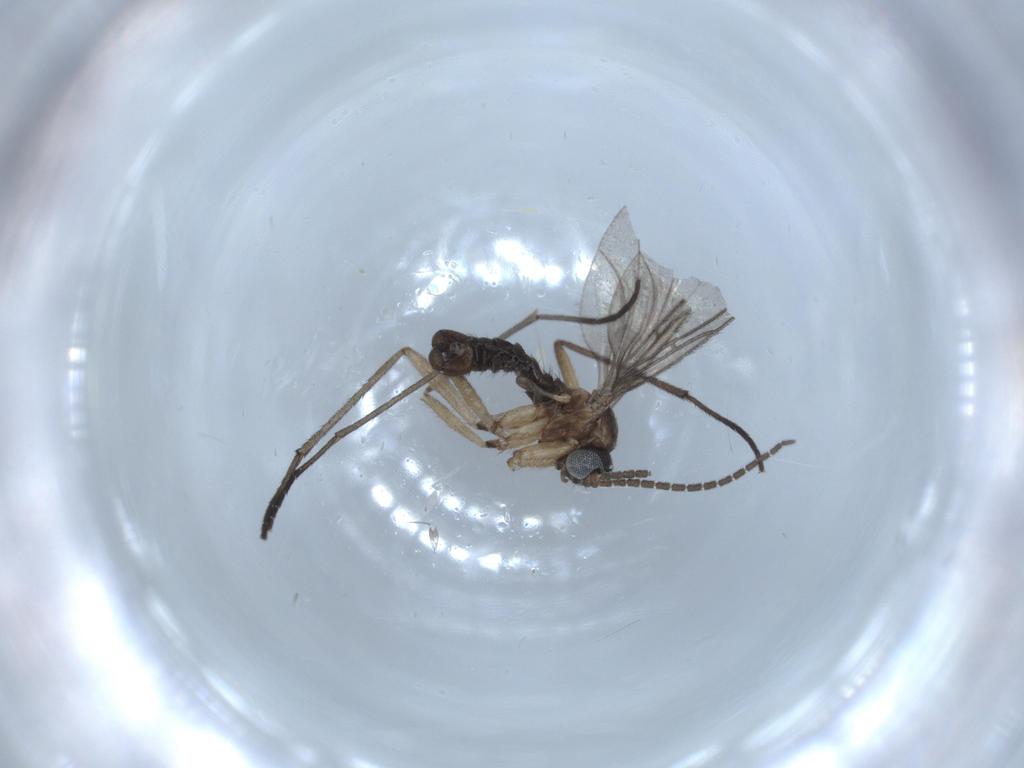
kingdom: Animalia
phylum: Arthropoda
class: Insecta
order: Diptera
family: Sciaridae
